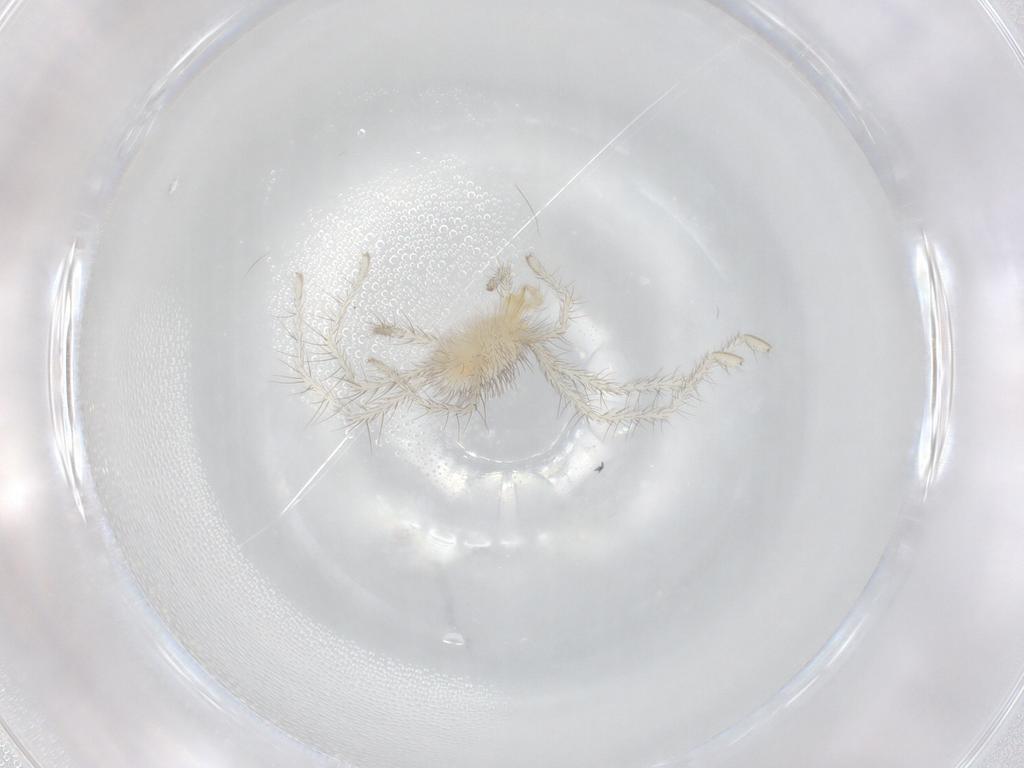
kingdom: Animalia
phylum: Arthropoda
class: Arachnida
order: Trombidiformes
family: Erythraeidae
